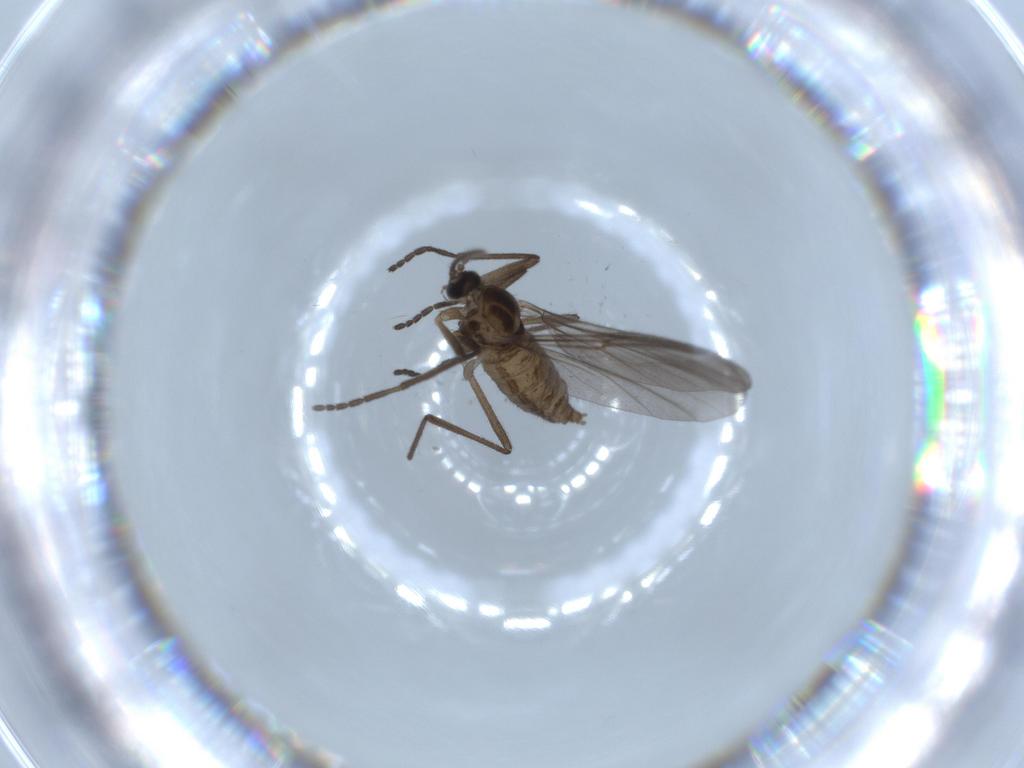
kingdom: Animalia
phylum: Arthropoda
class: Insecta
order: Diptera
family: Cecidomyiidae
